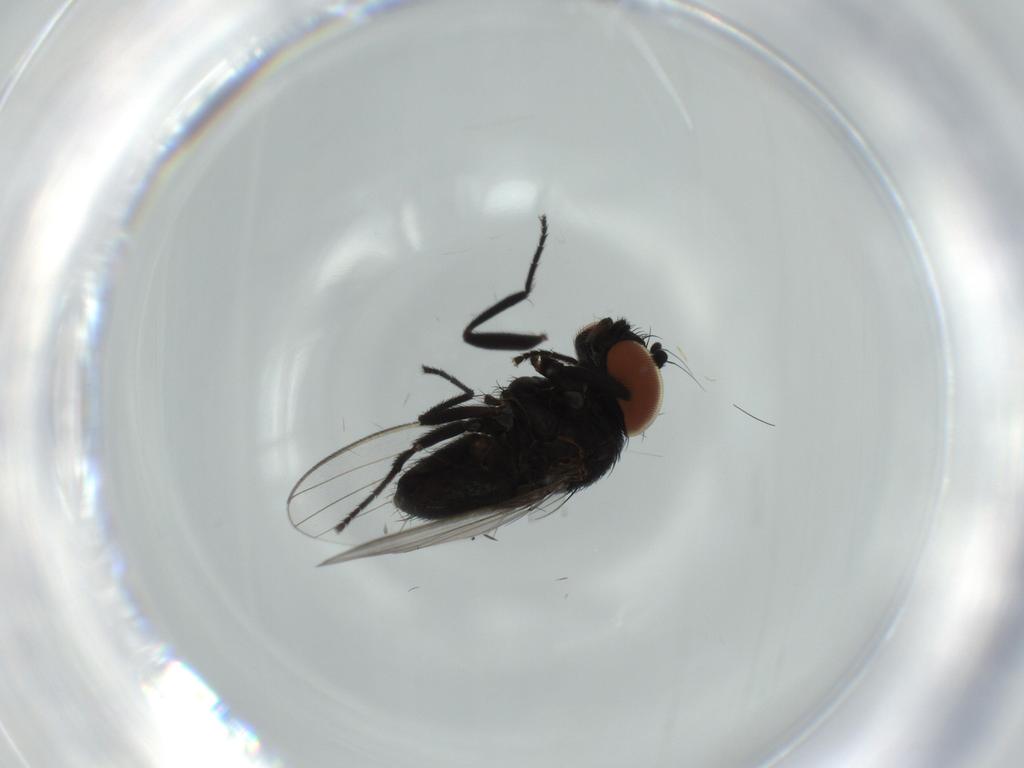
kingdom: Animalia
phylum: Arthropoda
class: Insecta
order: Diptera
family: Milichiidae
